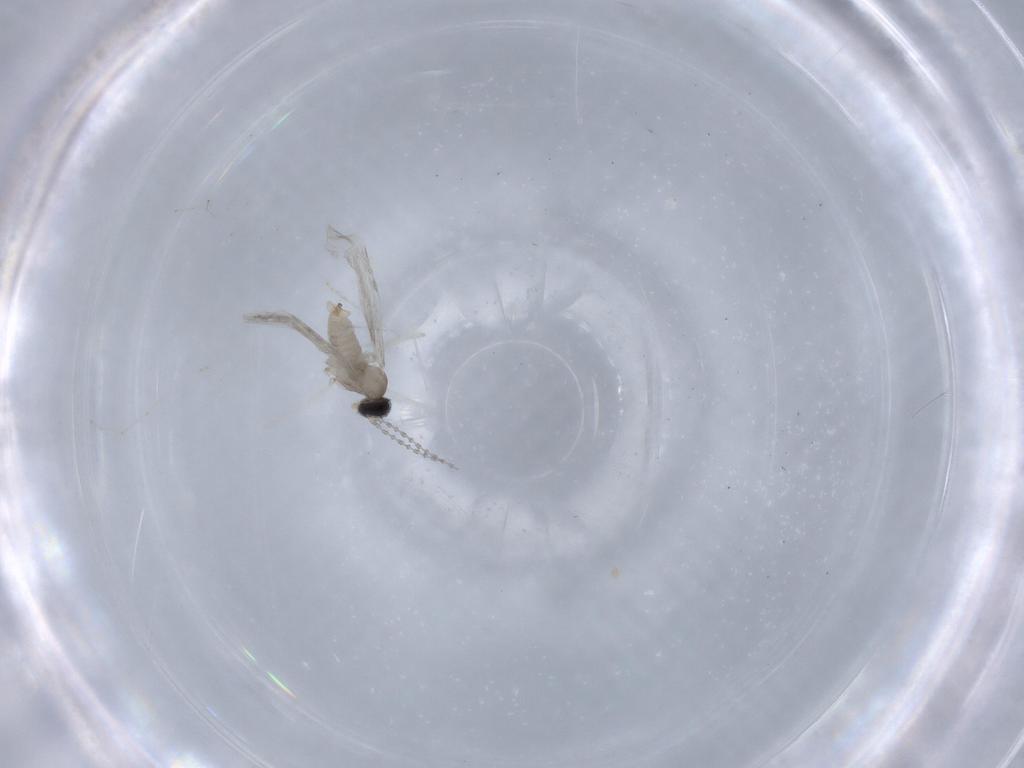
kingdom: Animalia
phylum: Arthropoda
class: Insecta
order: Diptera
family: Cecidomyiidae
